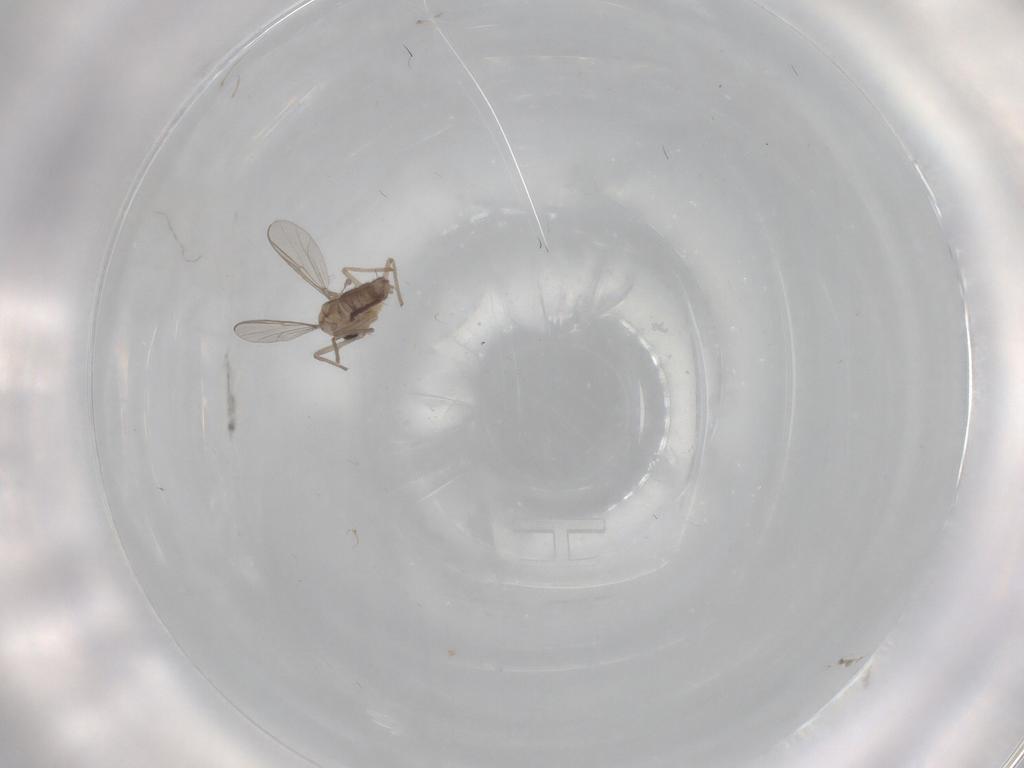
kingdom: Animalia
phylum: Arthropoda
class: Insecta
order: Diptera
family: Chironomidae
